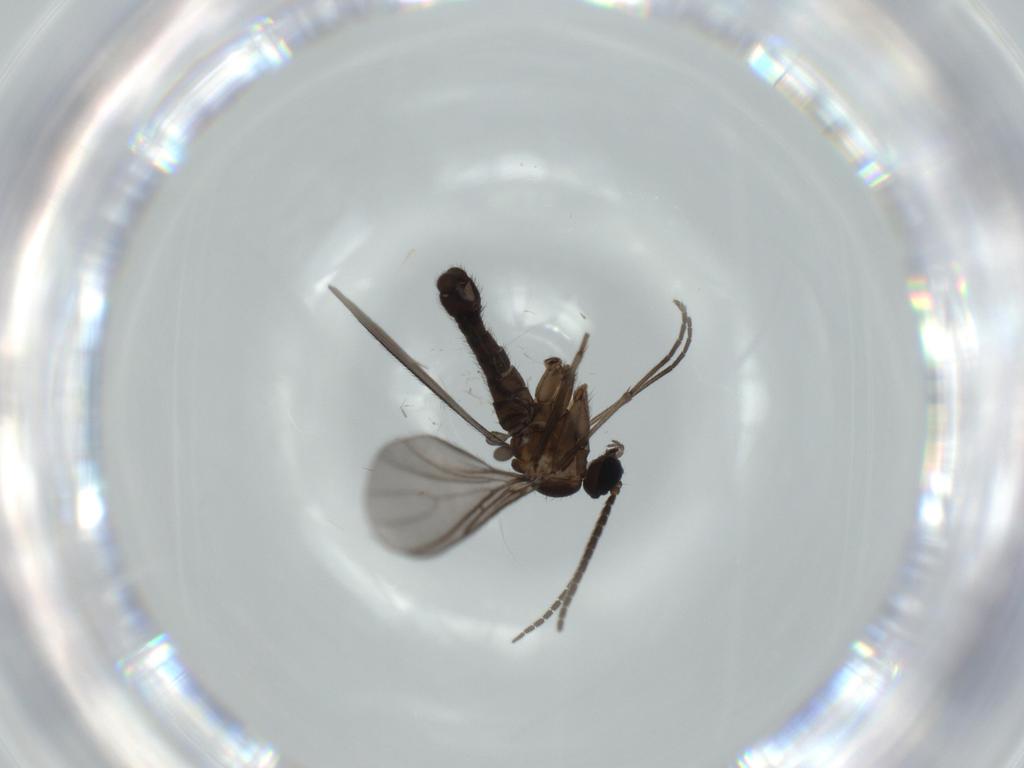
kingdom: Animalia
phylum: Arthropoda
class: Insecta
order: Diptera
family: Sciaridae
